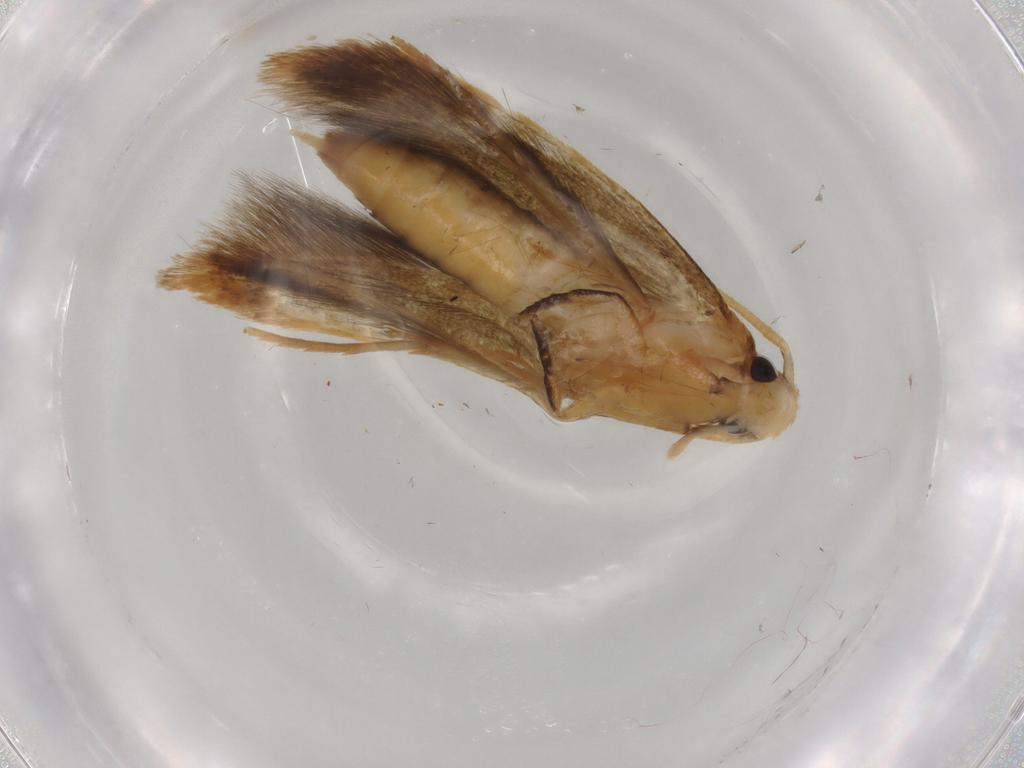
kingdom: Animalia
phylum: Arthropoda
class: Insecta
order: Lepidoptera
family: Tineidae
